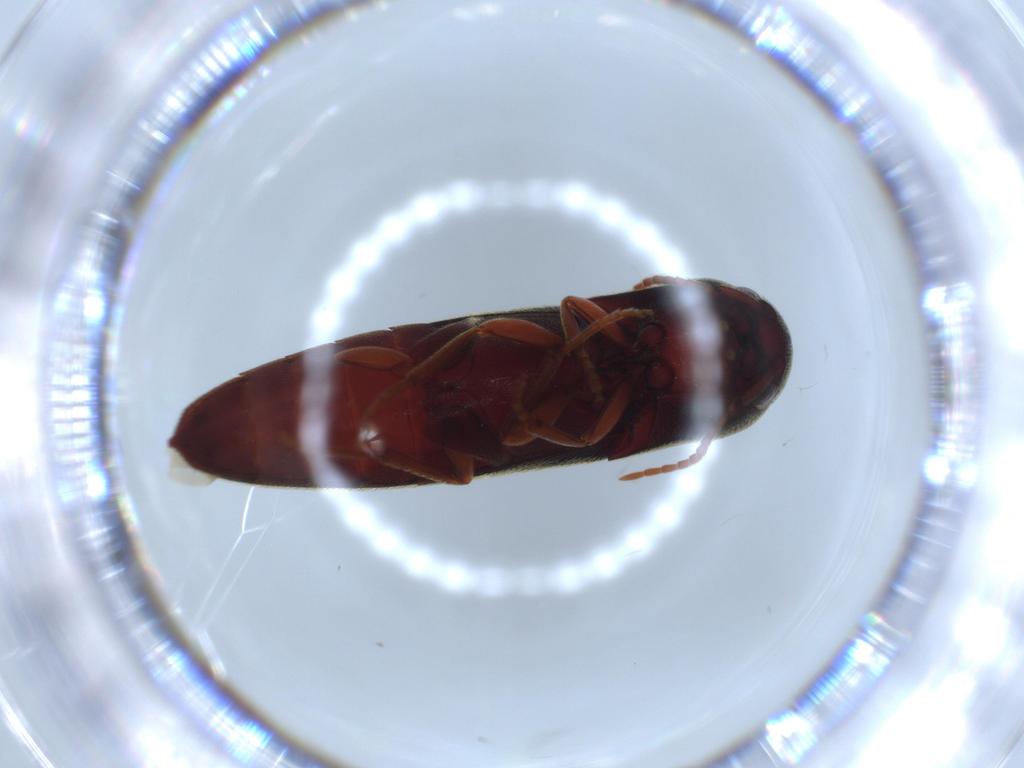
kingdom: Animalia
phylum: Arthropoda
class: Insecta
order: Coleoptera
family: Eucnemidae
